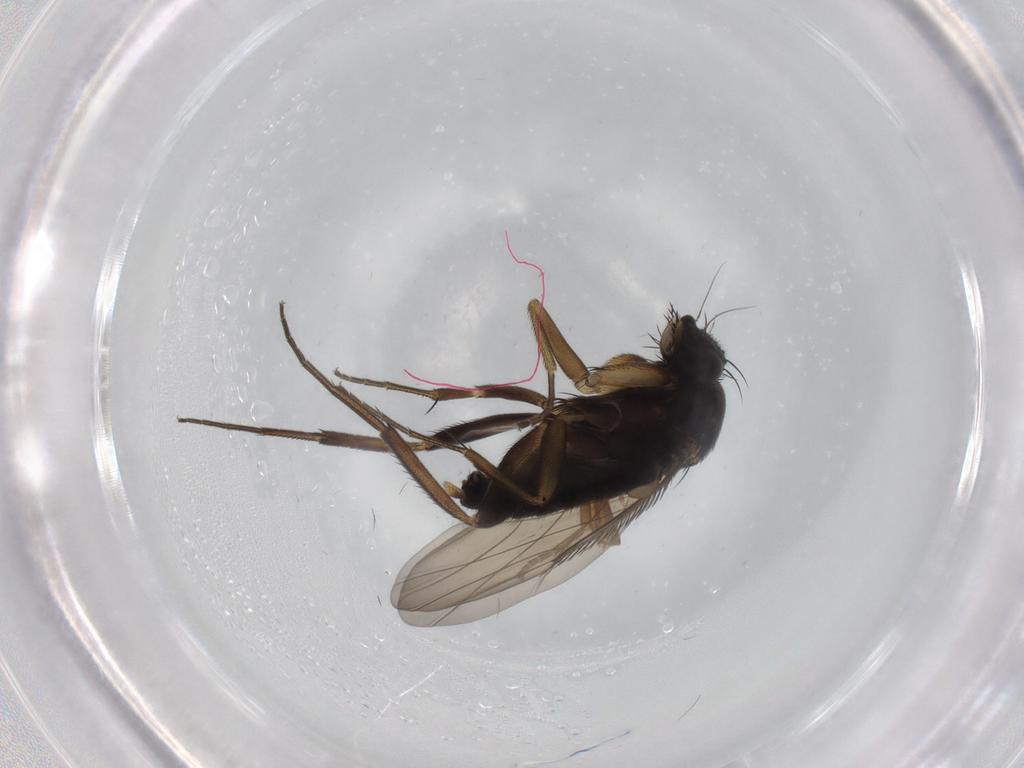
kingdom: Animalia
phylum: Arthropoda
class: Insecta
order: Diptera
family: Phoridae
